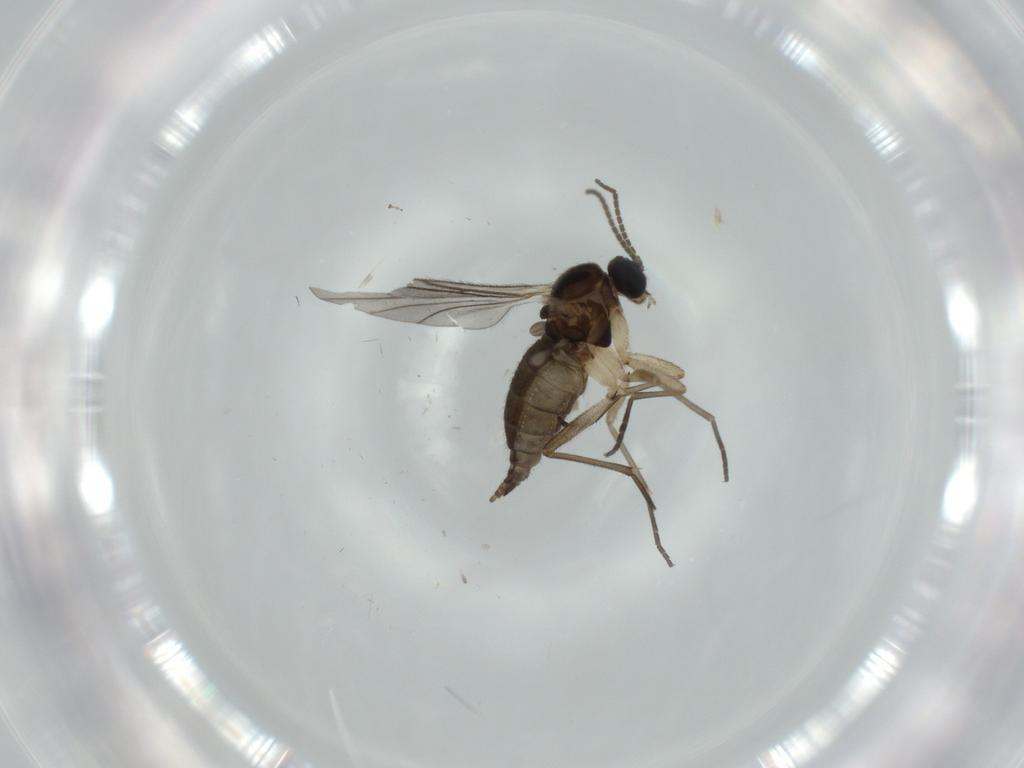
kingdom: Animalia
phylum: Arthropoda
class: Insecta
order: Diptera
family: Sciaridae
